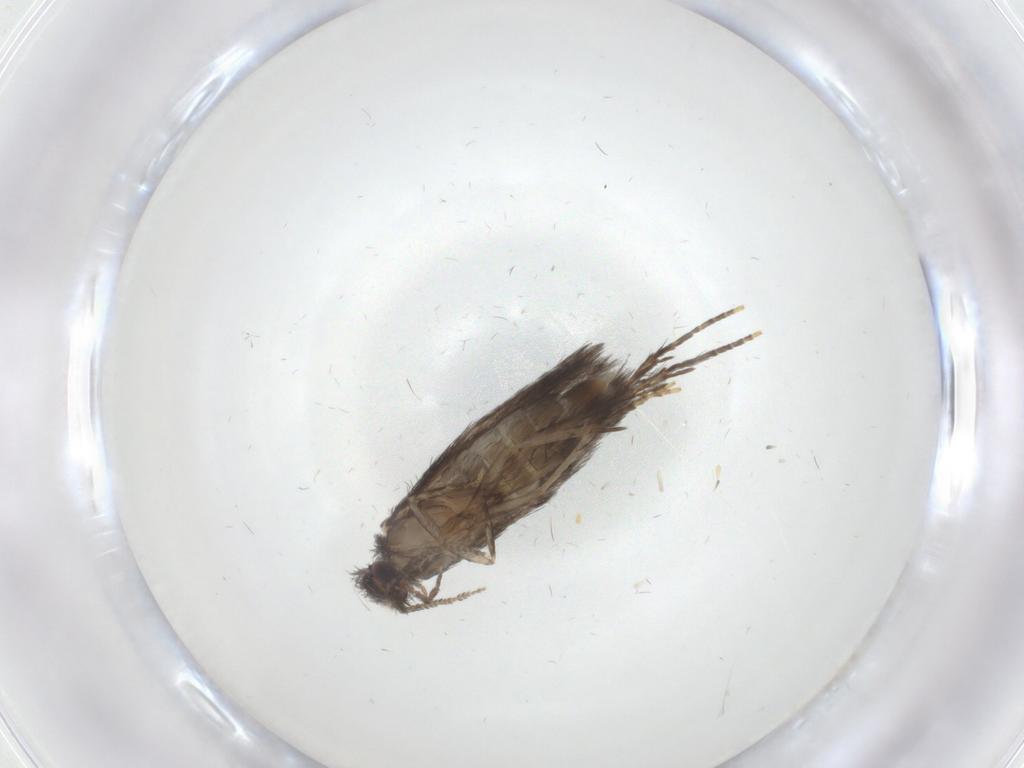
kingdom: Animalia
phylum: Arthropoda
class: Insecta
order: Trichoptera
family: Hydroptilidae
